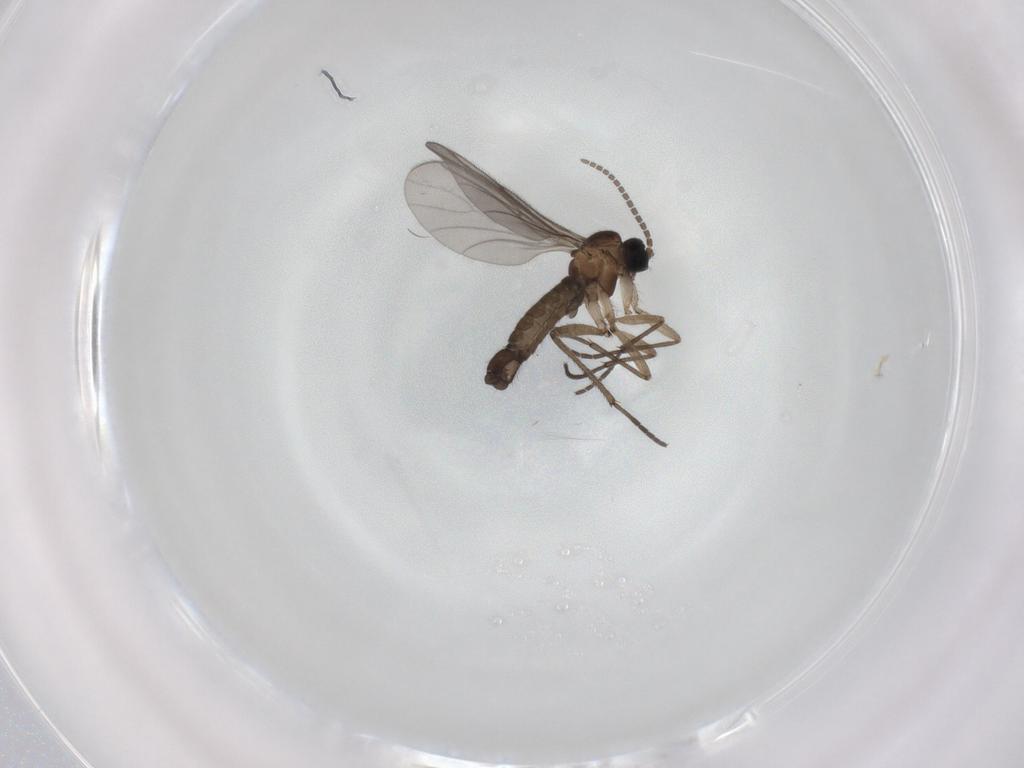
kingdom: Animalia
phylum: Arthropoda
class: Insecta
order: Diptera
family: Sciaridae
